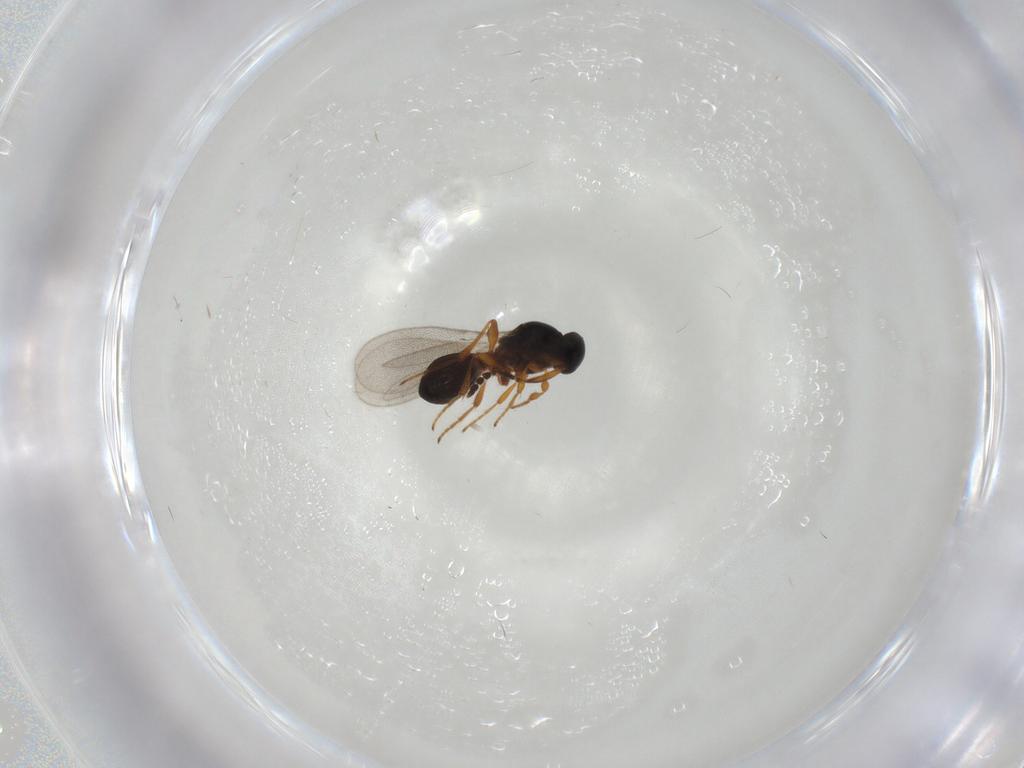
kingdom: Animalia
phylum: Arthropoda
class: Insecta
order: Hymenoptera
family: Platygastridae
